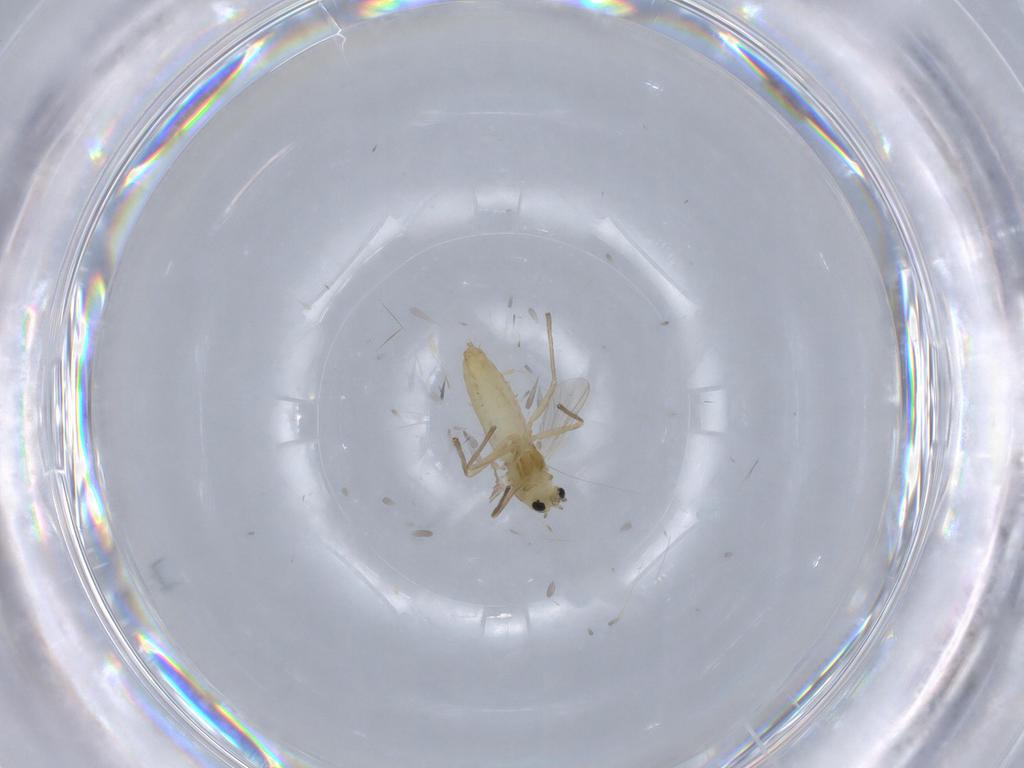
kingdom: Animalia
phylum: Arthropoda
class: Insecta
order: Diptera
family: Chironomidae
